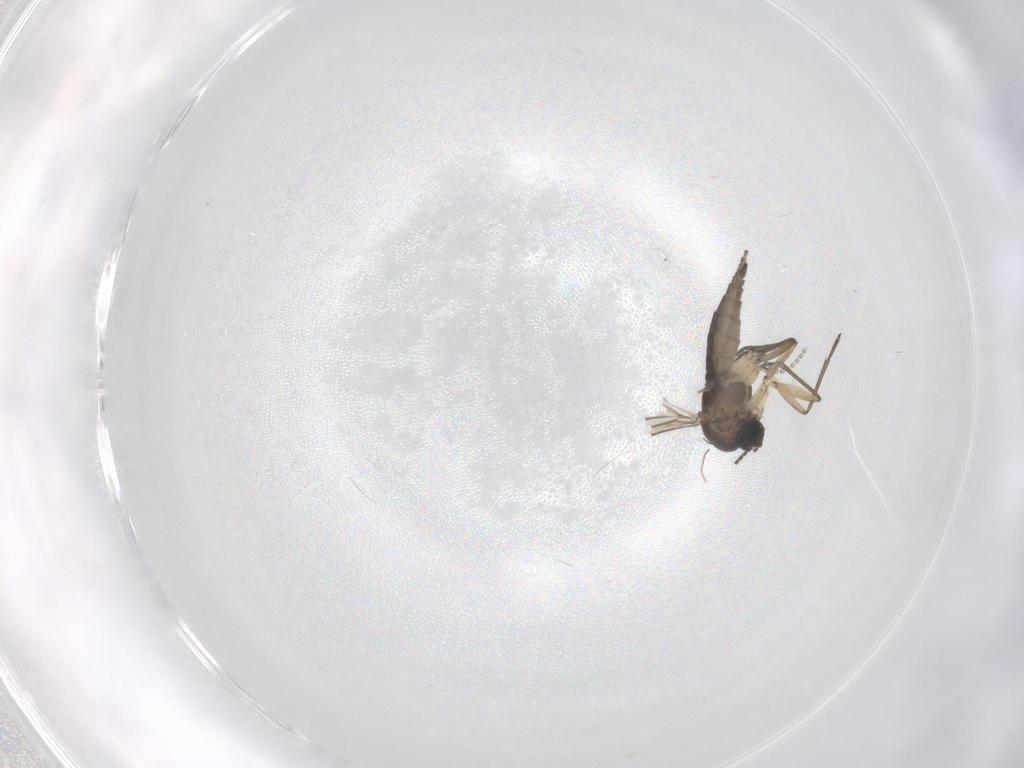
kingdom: Animalia
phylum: Arthropoda
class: Insecta
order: Diptera
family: Sciaridae
